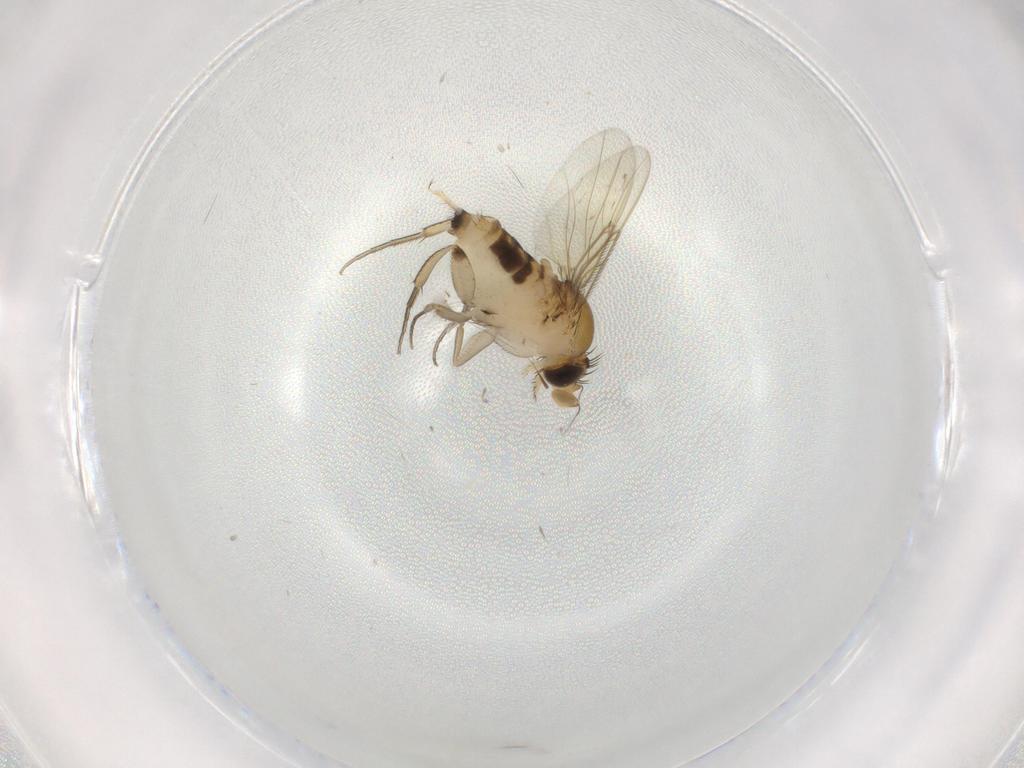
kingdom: Animalia
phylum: Arthropoda
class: Insecta
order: Diptera
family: Phoridae
